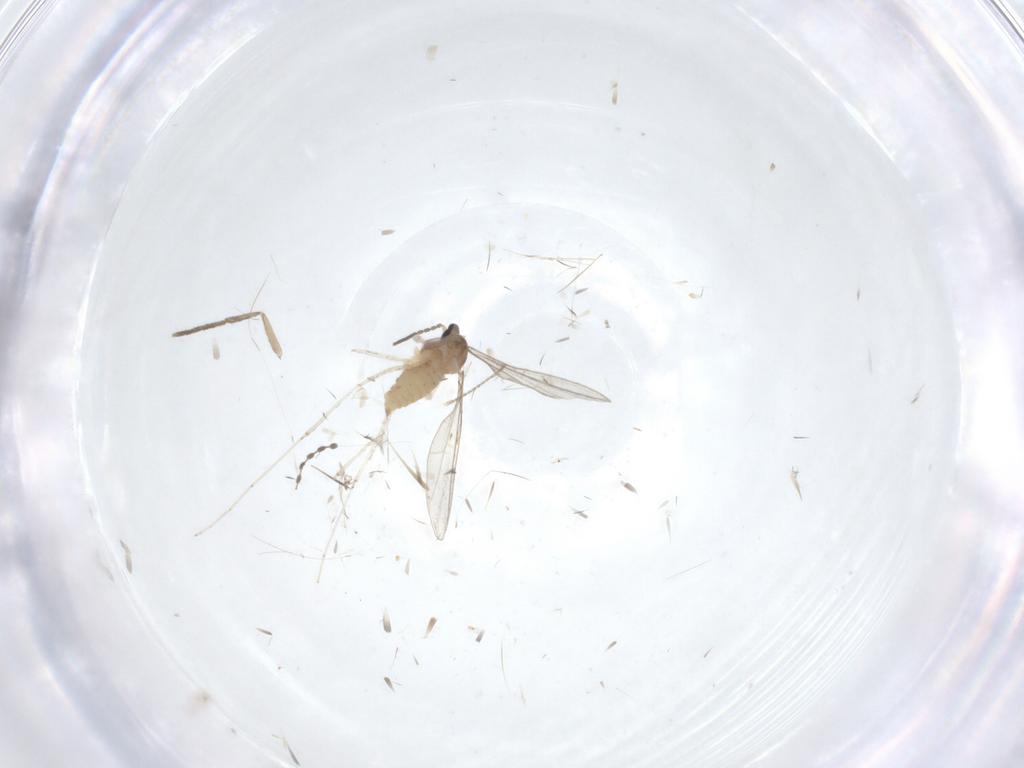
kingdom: Animalia
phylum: Arthropoda
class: Insecta
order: Diptera
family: Cecidomyiidae
